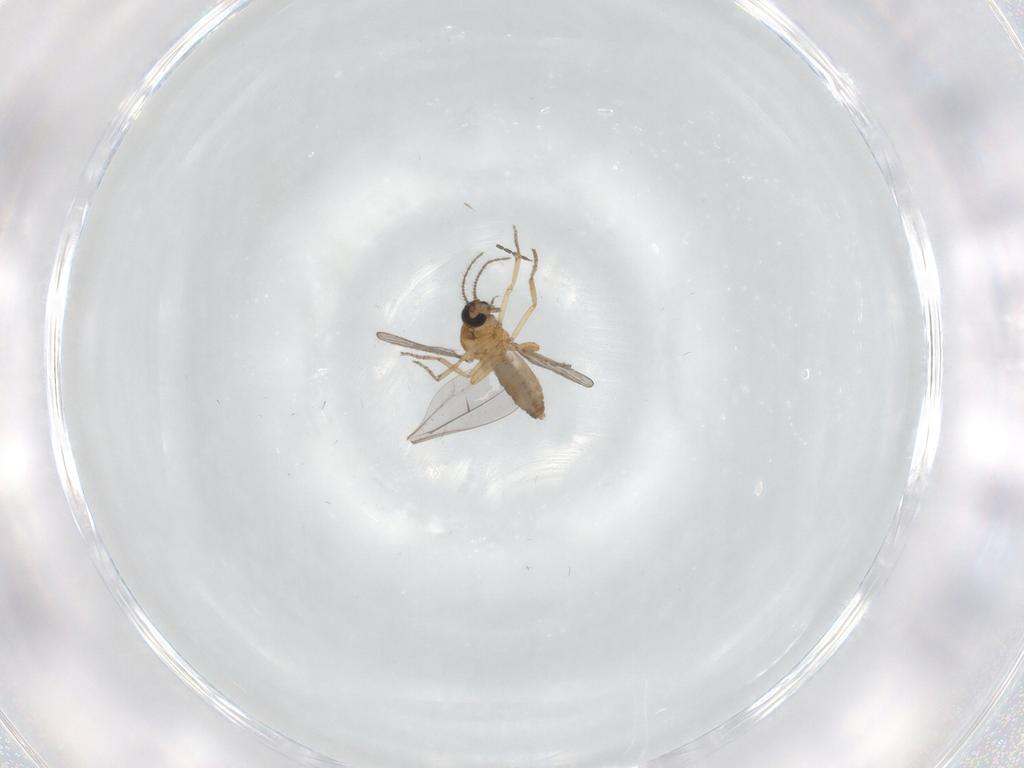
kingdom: Animalia
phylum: Arthropoda
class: Insecta
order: Diptera
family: Ceratopogonidae
